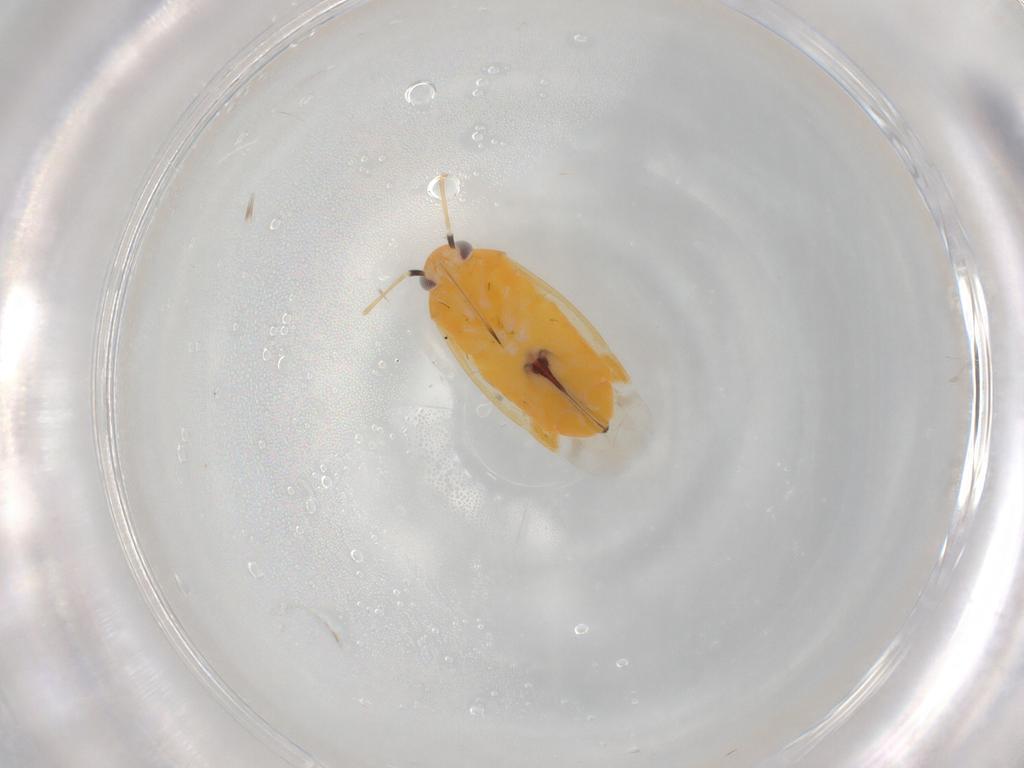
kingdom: Animalia
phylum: Arthropoda
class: Insecta
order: Hemiptera
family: Miridae
